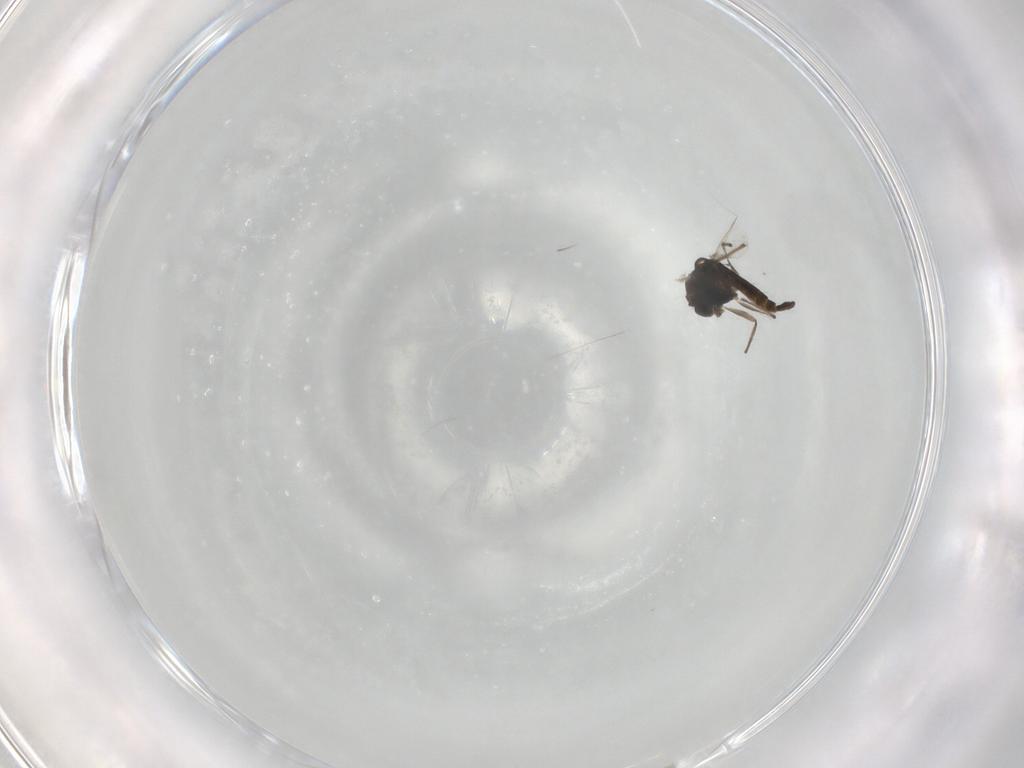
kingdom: Animalia
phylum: Arthropoda
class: Insecta
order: Diptera
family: Chironomidae
